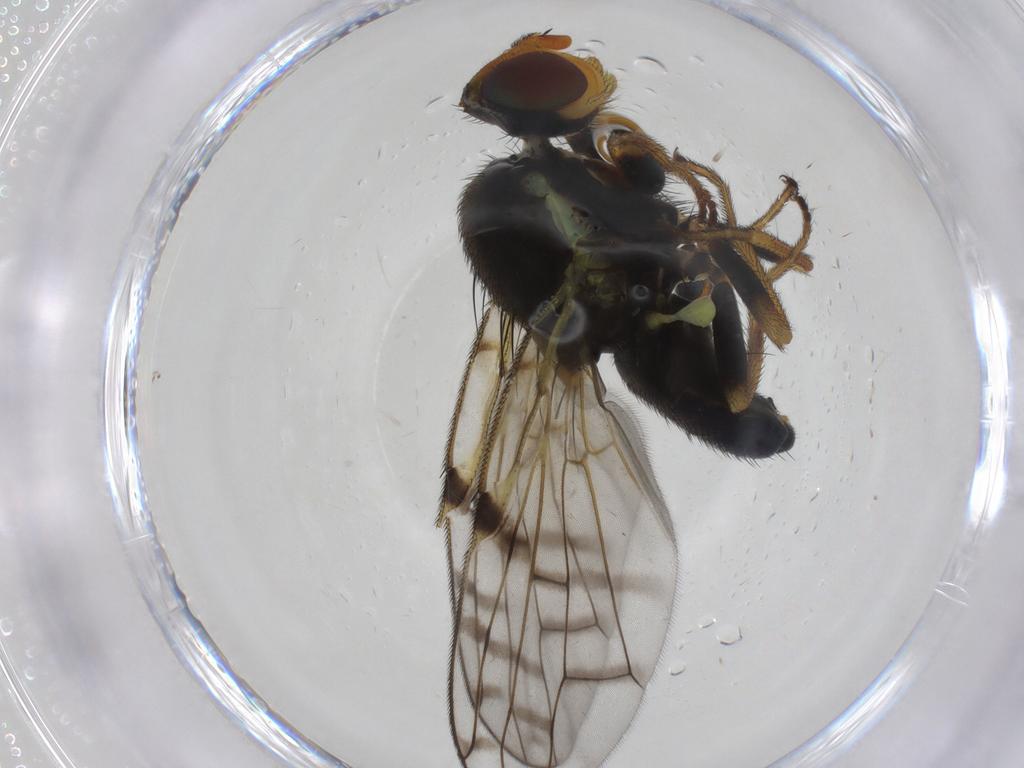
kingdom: Animalia
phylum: Arthropoda
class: Insecta
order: Diptera
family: Tephritidae
